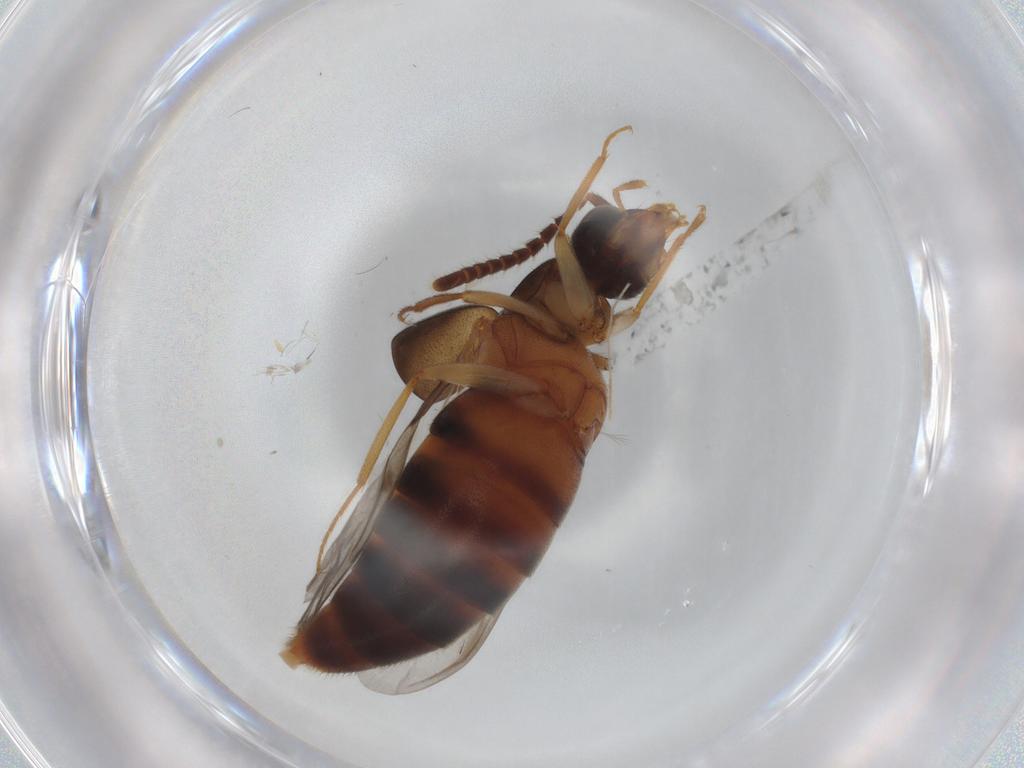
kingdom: Animalia
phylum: Arthropoda
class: Insecta
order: Coleoptera
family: Staphylinidae
